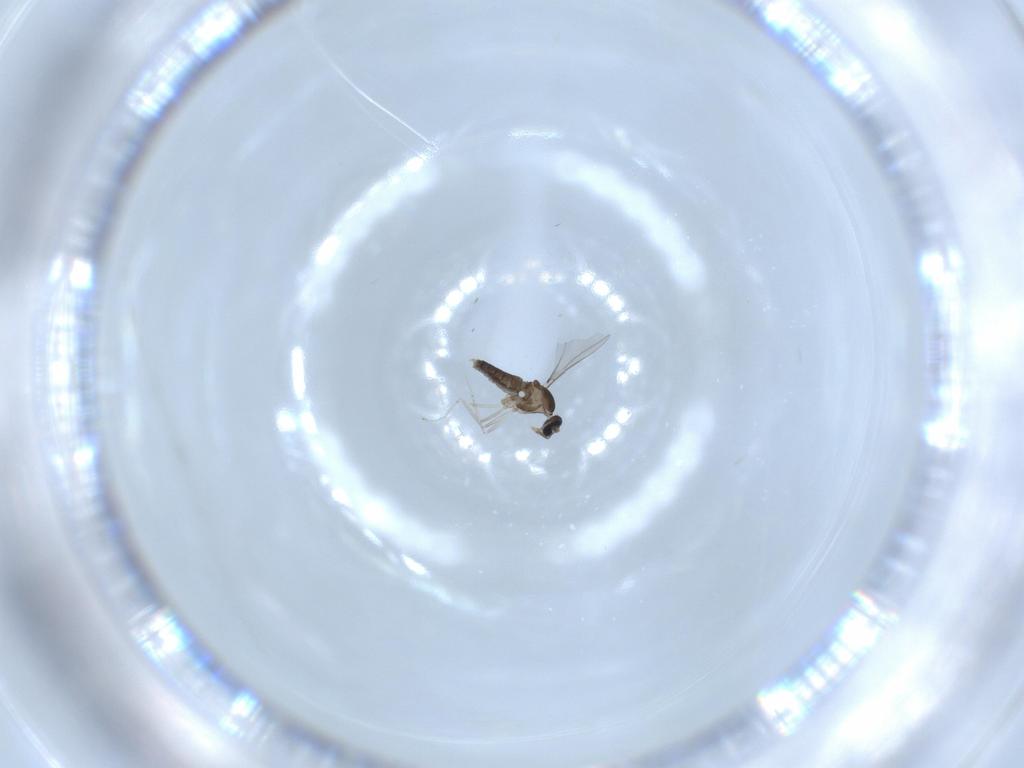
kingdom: Animalia
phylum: Arthropoda
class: Insecta
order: Diptera
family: Cecidomyiidae
